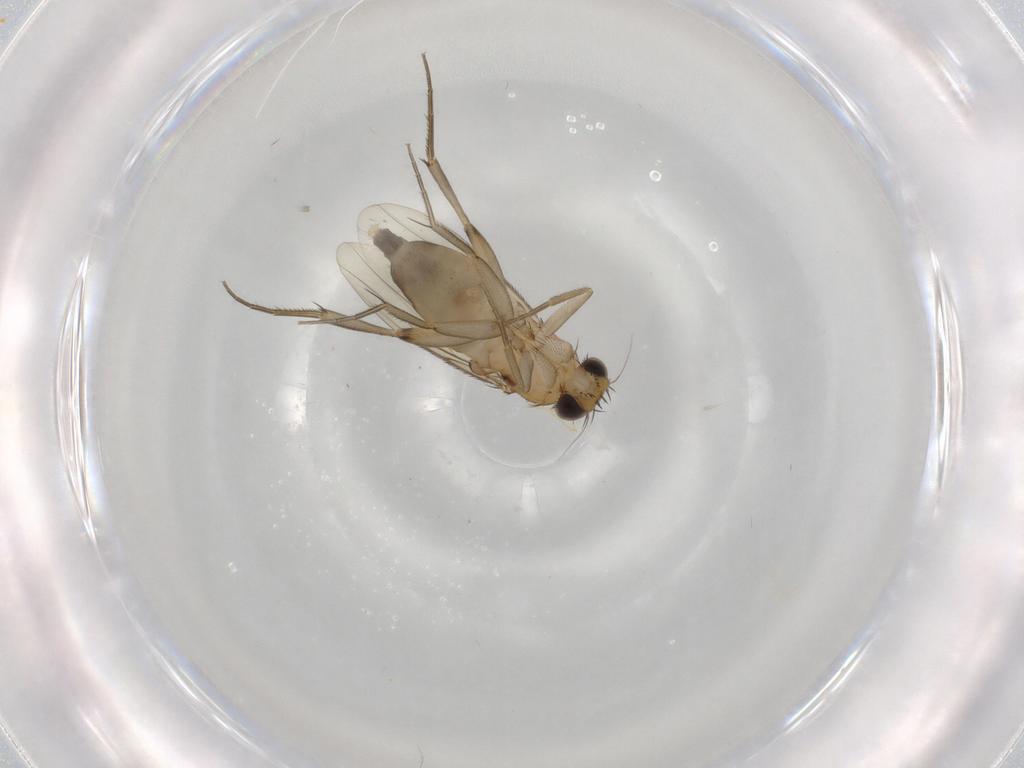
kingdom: Animalia
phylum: Arthropoda
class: Insecta
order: Diptera
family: Phoridae
